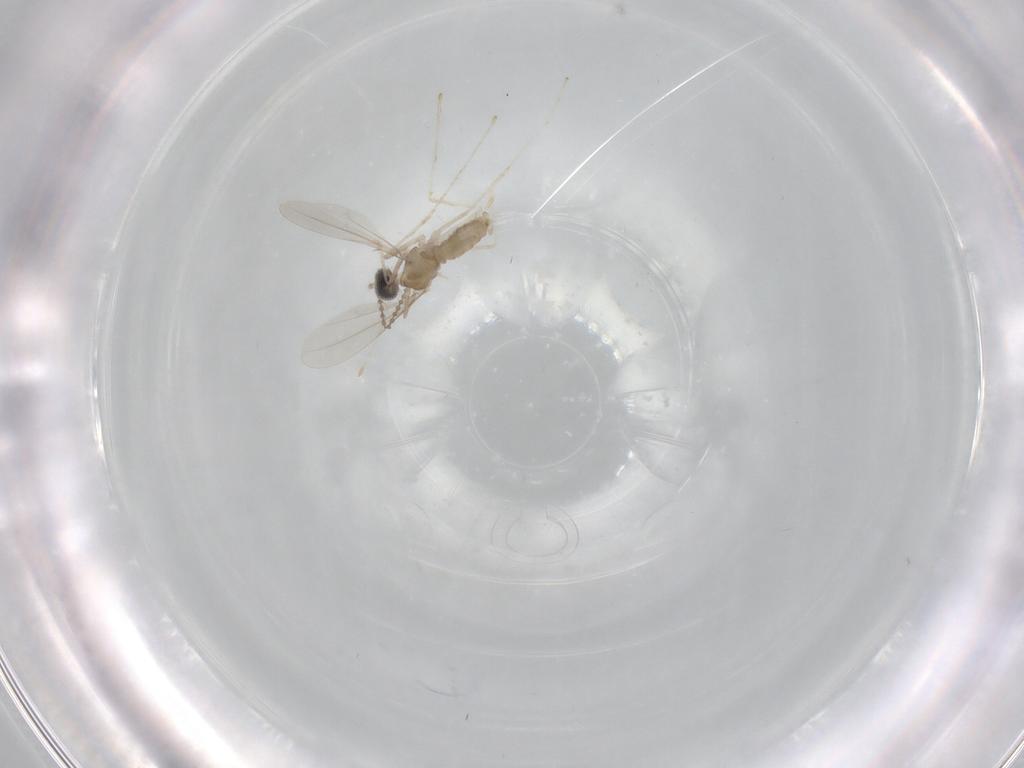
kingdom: Animalia
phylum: Arthropoda
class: Insecta
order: Diptera
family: Cecidomyiidae
